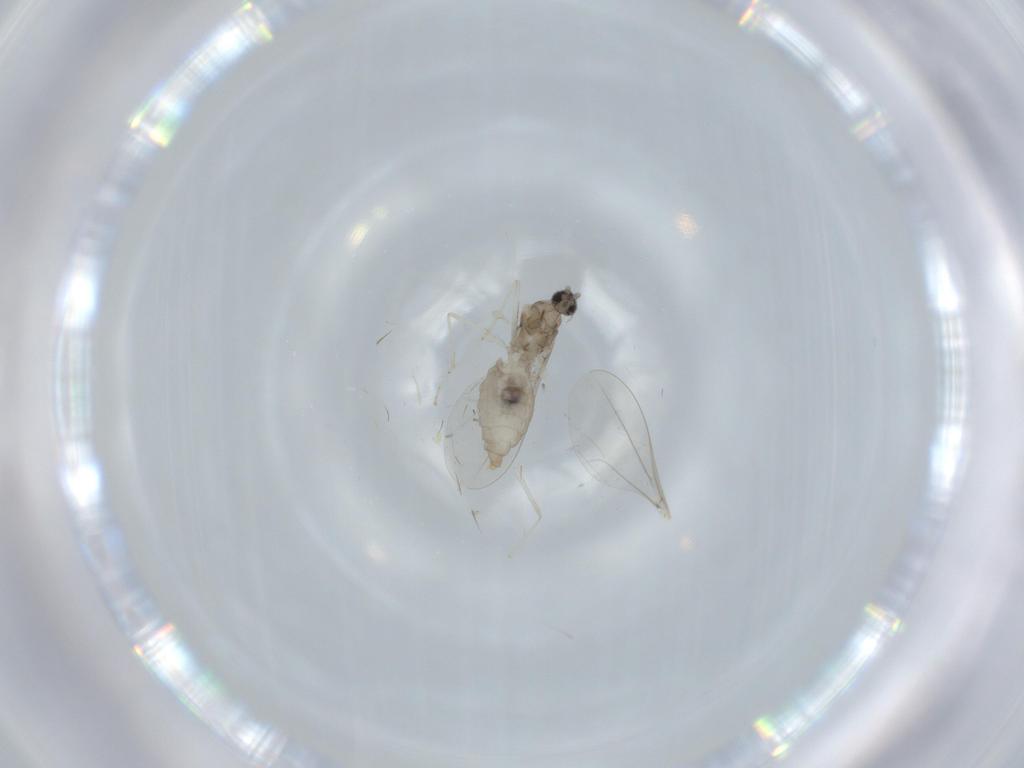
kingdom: Animalia
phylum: Arthropoda
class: Insecta
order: Diptera
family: Cecidomyiidae
